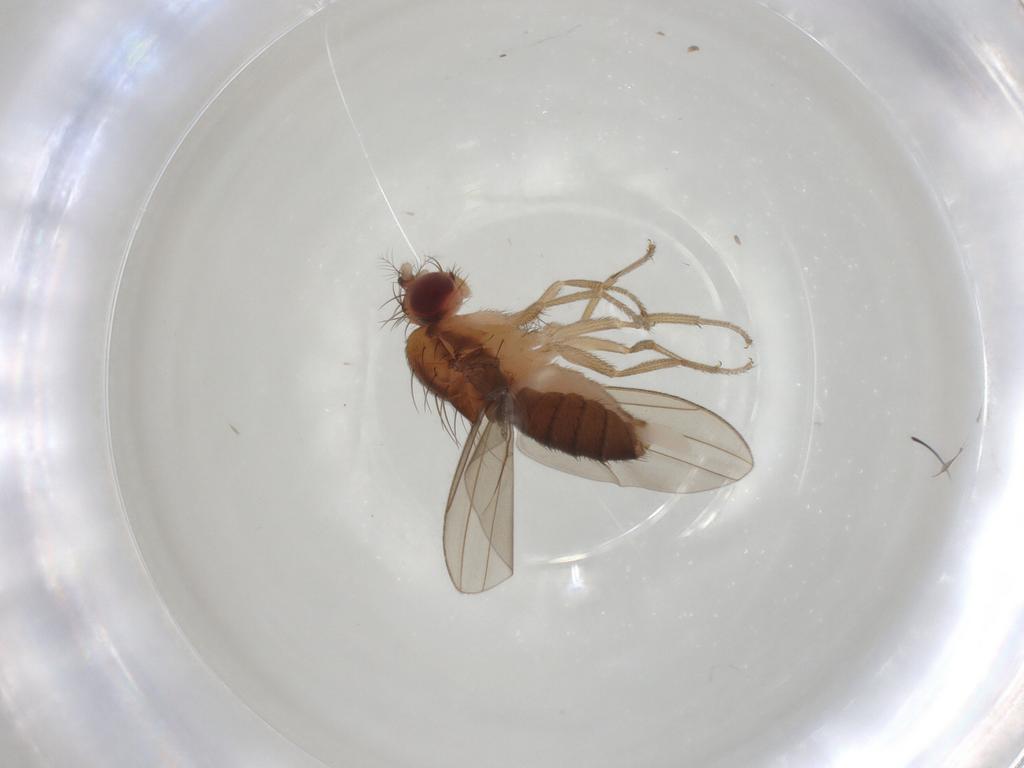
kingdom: Animalia
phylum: Arthropoda
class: Insecta
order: Diptera
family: Drosophilidae
